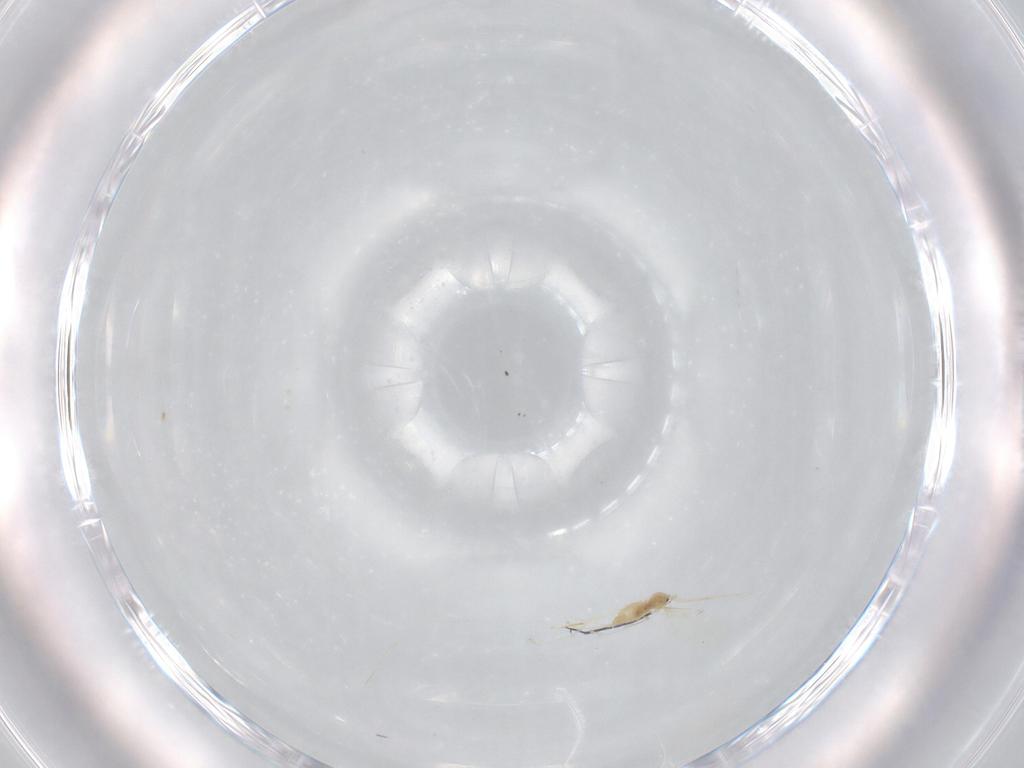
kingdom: Animalia
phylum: Arthropoda
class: Insecta
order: Diptera
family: Cecidomyiidae
